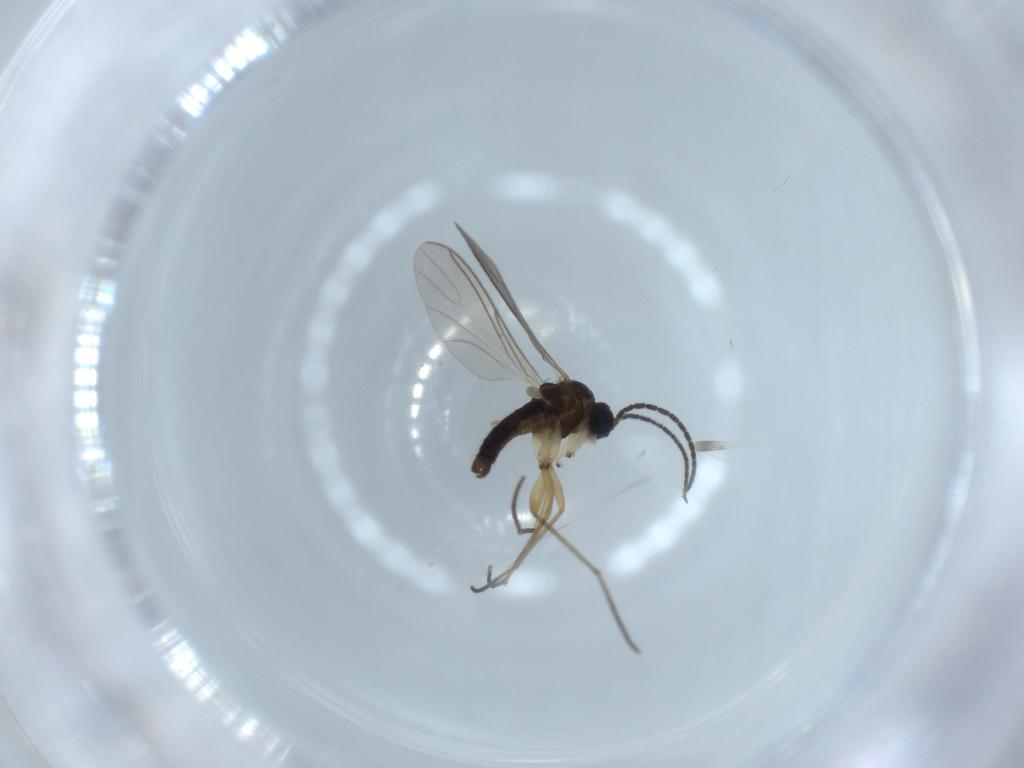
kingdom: Animalia
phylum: Arthropoda
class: Insecta
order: Diptera
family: Sciaridae
